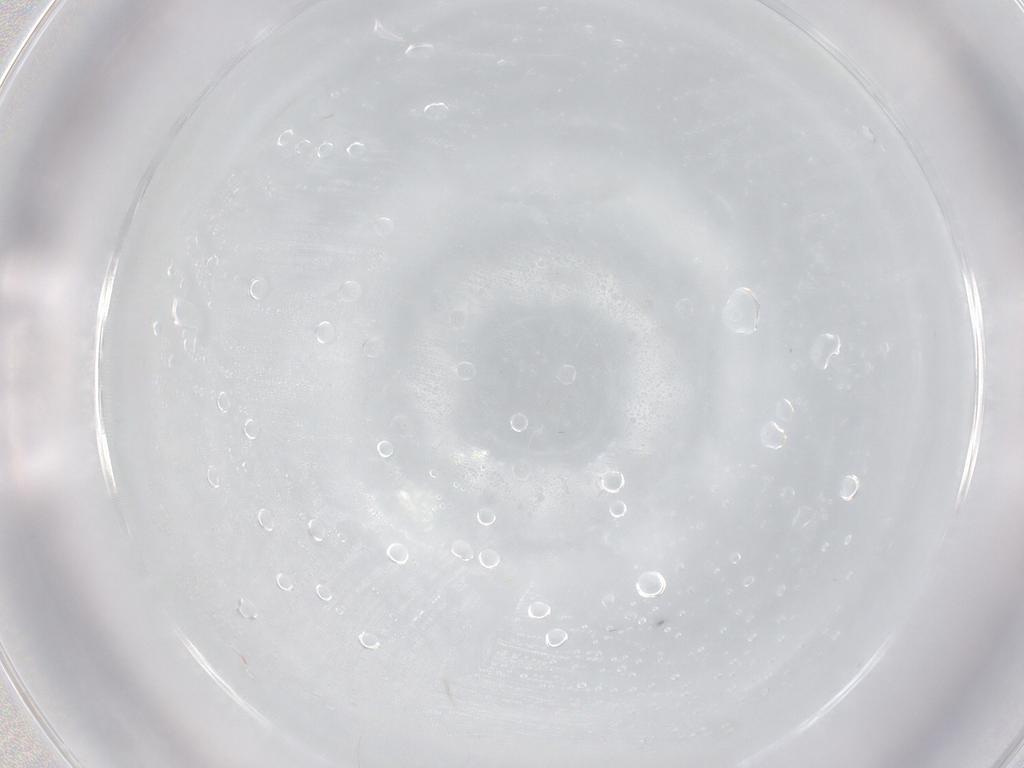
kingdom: Animalia
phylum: Arthropoda
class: Insecta
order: Diptera
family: Cecidomyiidae
